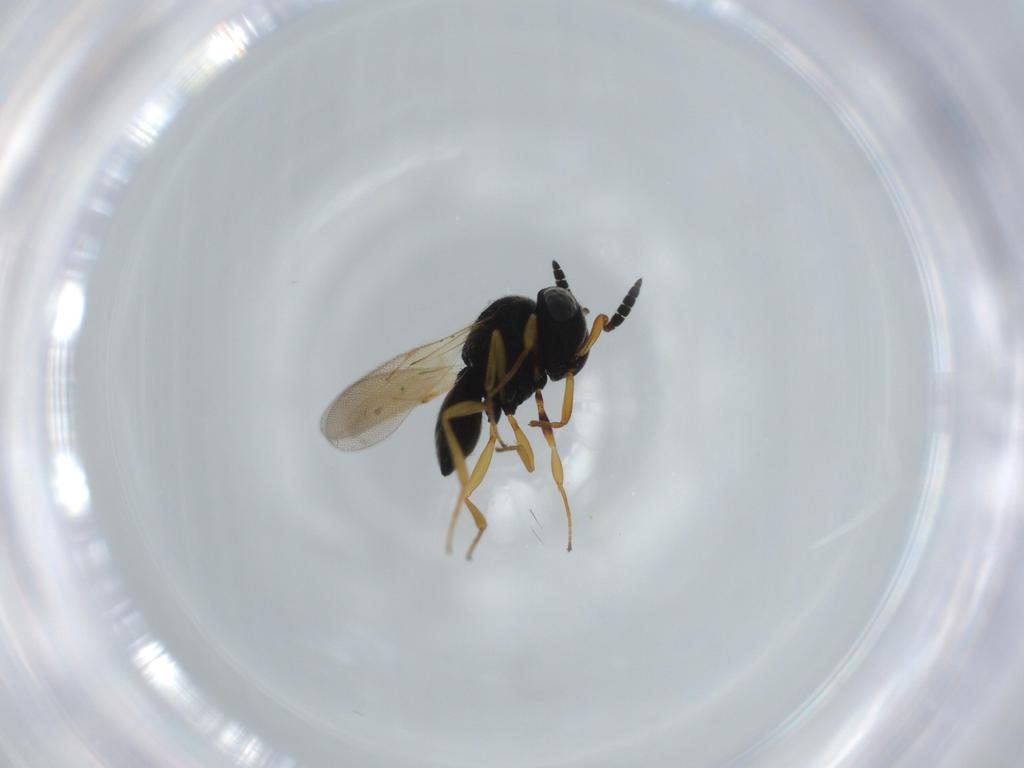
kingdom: Animalia
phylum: Arthropoda
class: Insecta
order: Hymenoptera
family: Scelionidae
